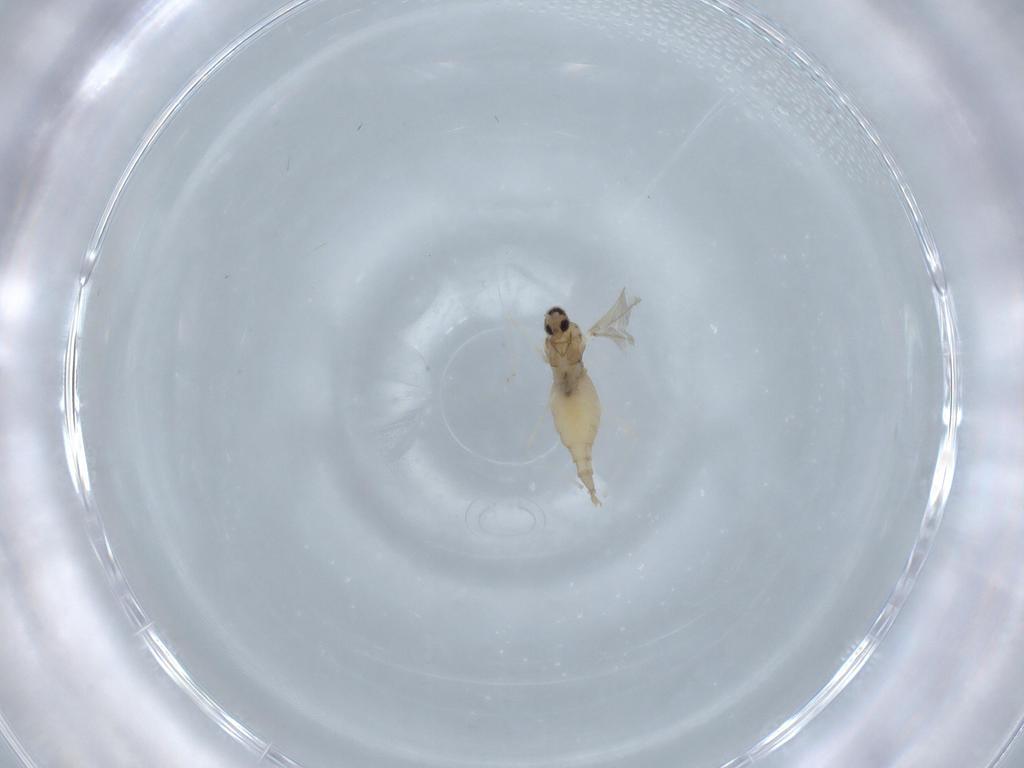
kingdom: Animalia
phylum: Arthropoda
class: Insecta
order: Diptera
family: Cecidomyiidae
